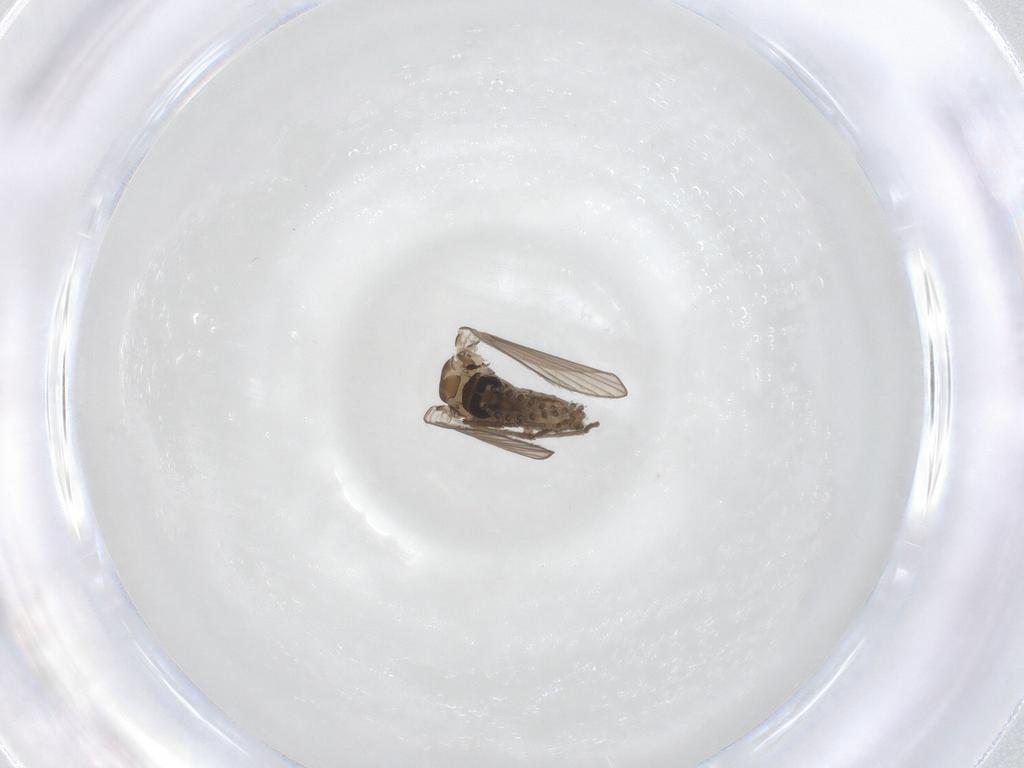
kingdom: Animalia
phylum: Arthropoda
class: Insecta
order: Diptera
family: Psychodidae
